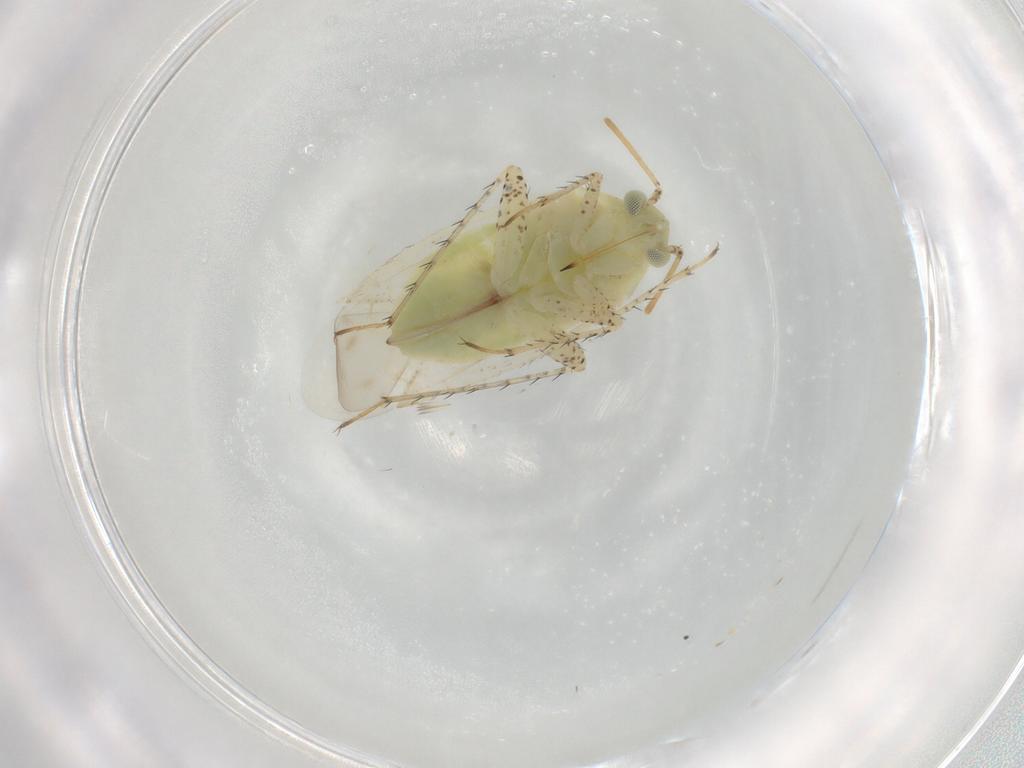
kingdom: Animalia
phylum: Arthropoda
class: Insecta
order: Hemiptera
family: Miridae
